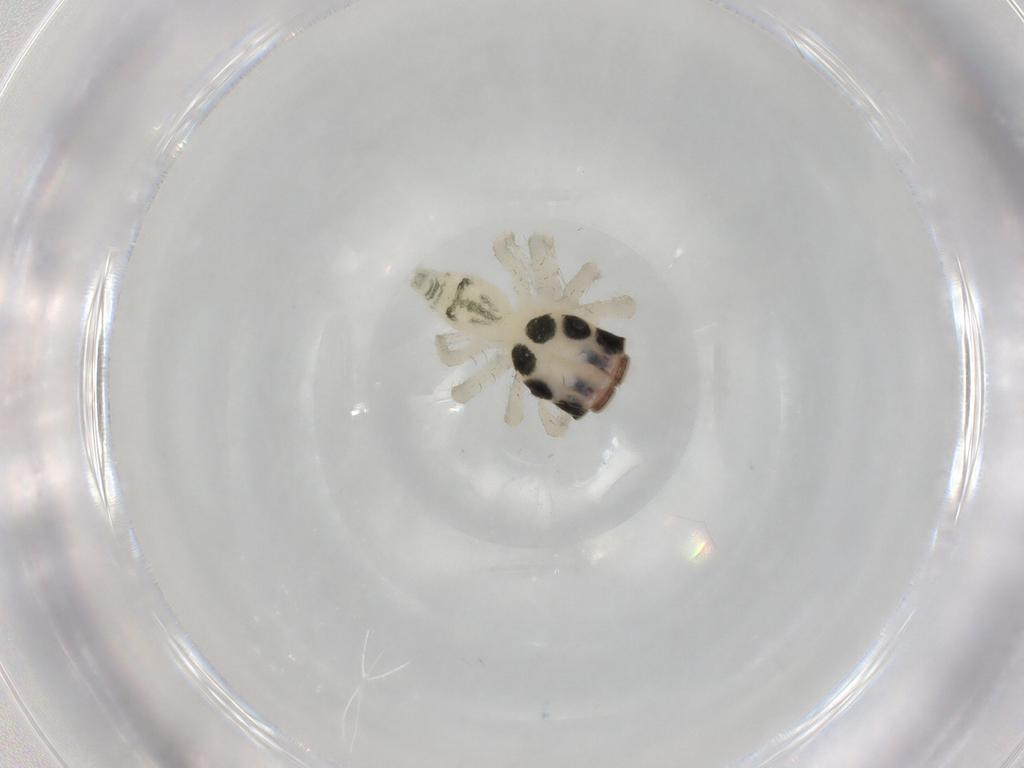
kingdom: Animalia
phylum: Arthropoda
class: Arachnida
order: Araneae
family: Salticidae
